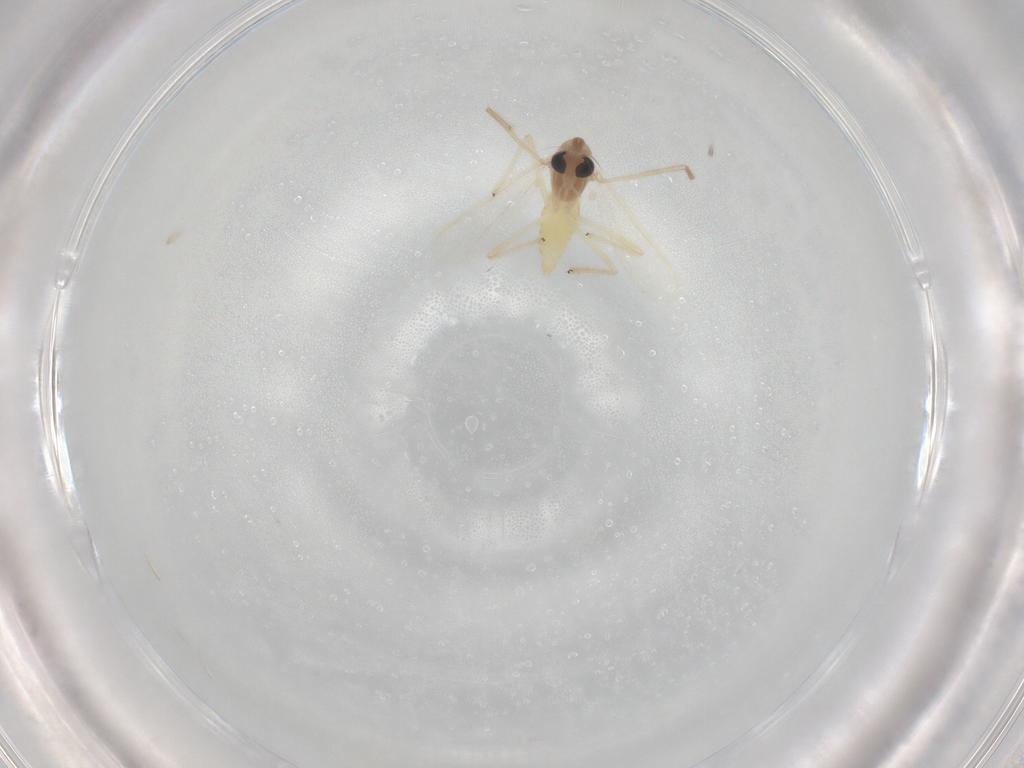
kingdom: Animalia
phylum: Arthropoda
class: Insecta
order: Diptera
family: Chironomidae
